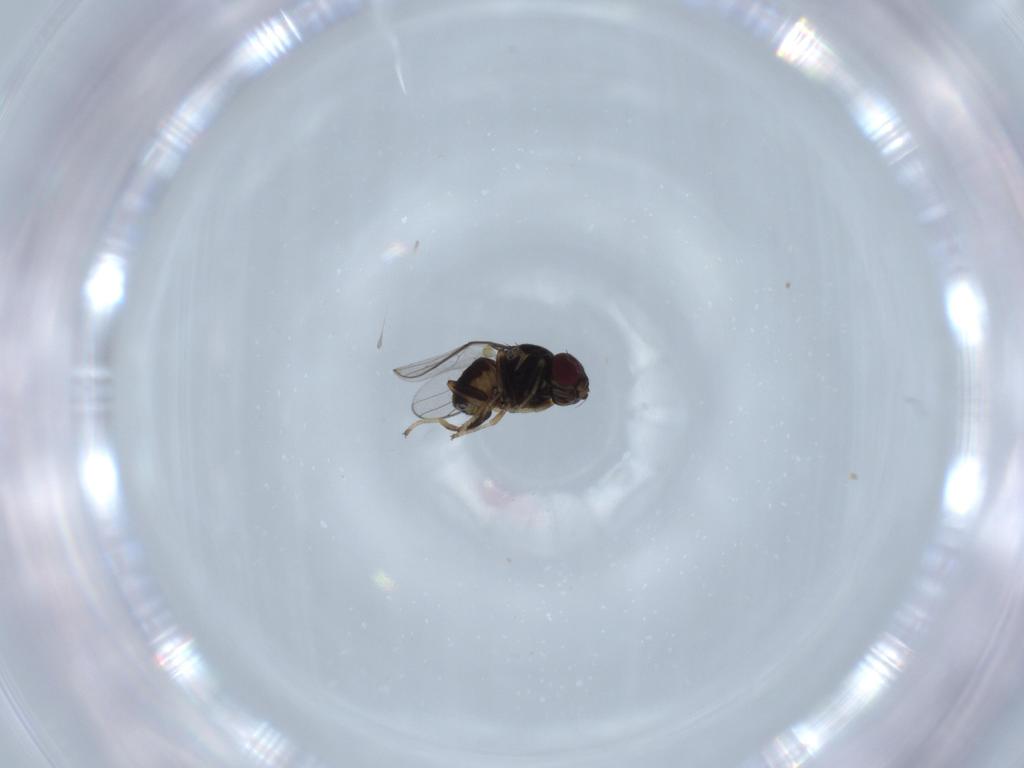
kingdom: Animalia
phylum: Arthropoda
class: Insecta
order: Diptera
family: Chloropidae
